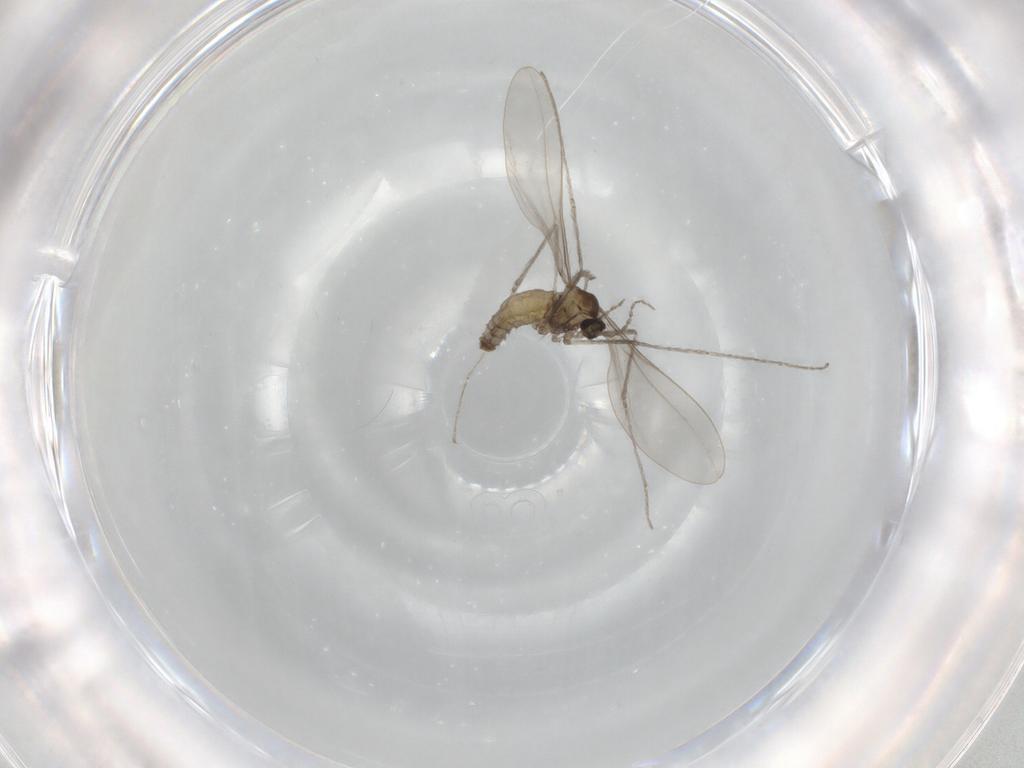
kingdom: Animalia
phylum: Arthropoda
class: Insecta
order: Diptera
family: Cecidomyiidae
